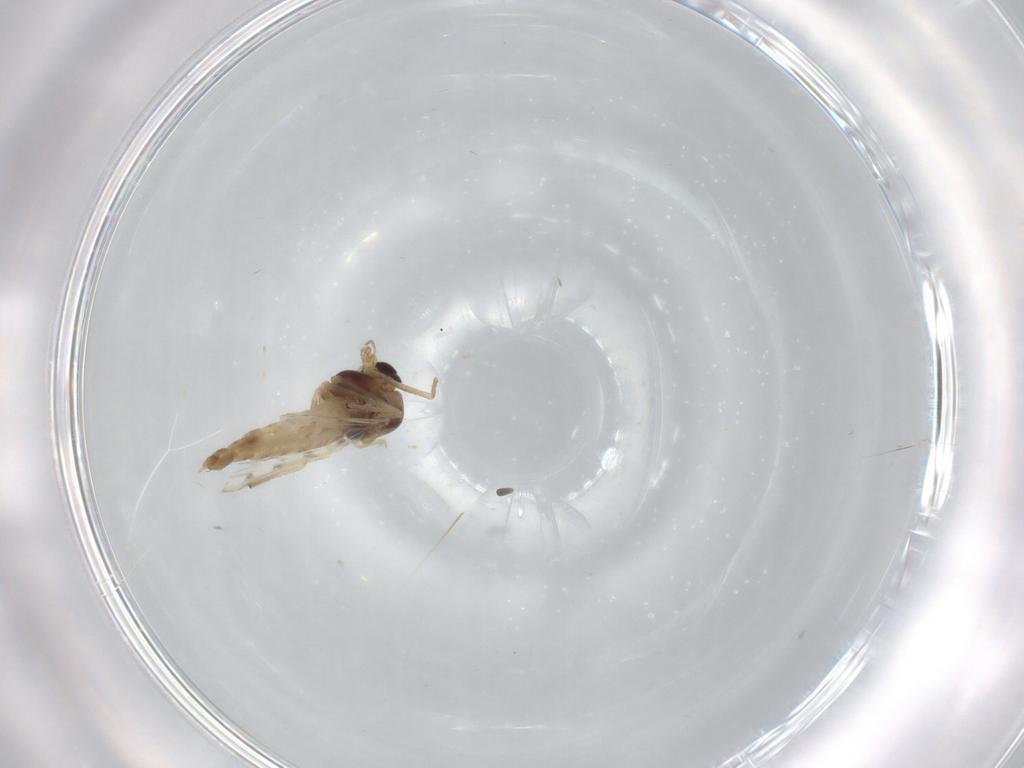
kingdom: Animalia
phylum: Arthropoda
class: Insecta
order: Diptera
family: Chironomidae
